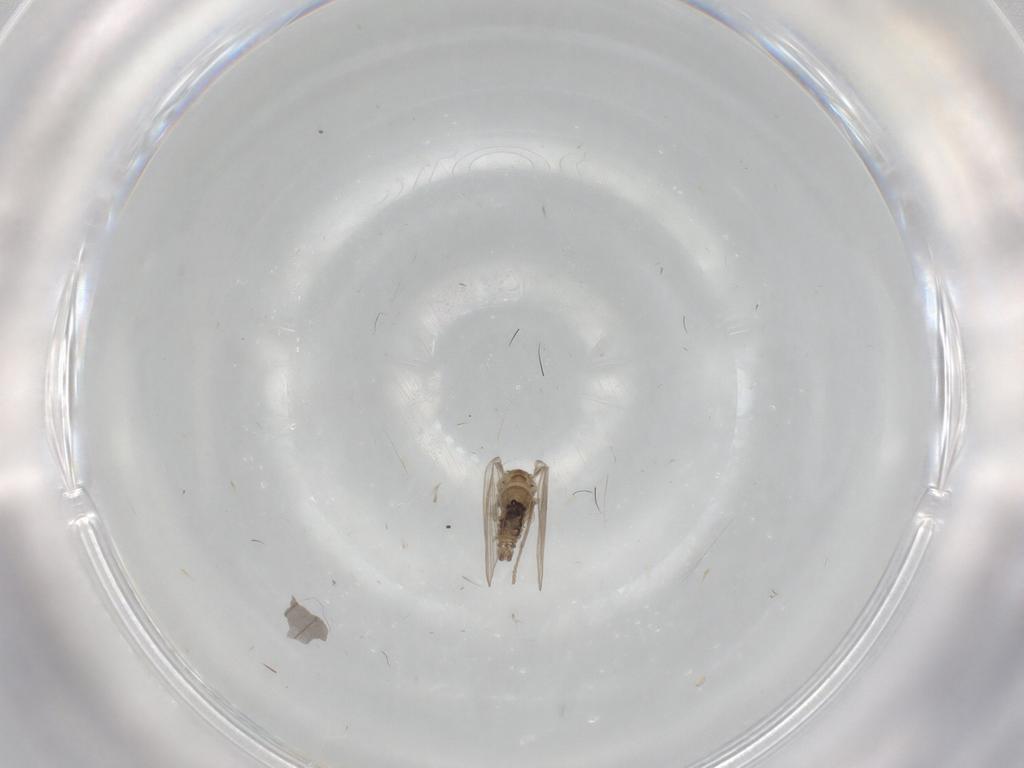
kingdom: Animalia
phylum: Arthropoda
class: Insecta
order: Diptera
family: Psychodidae
